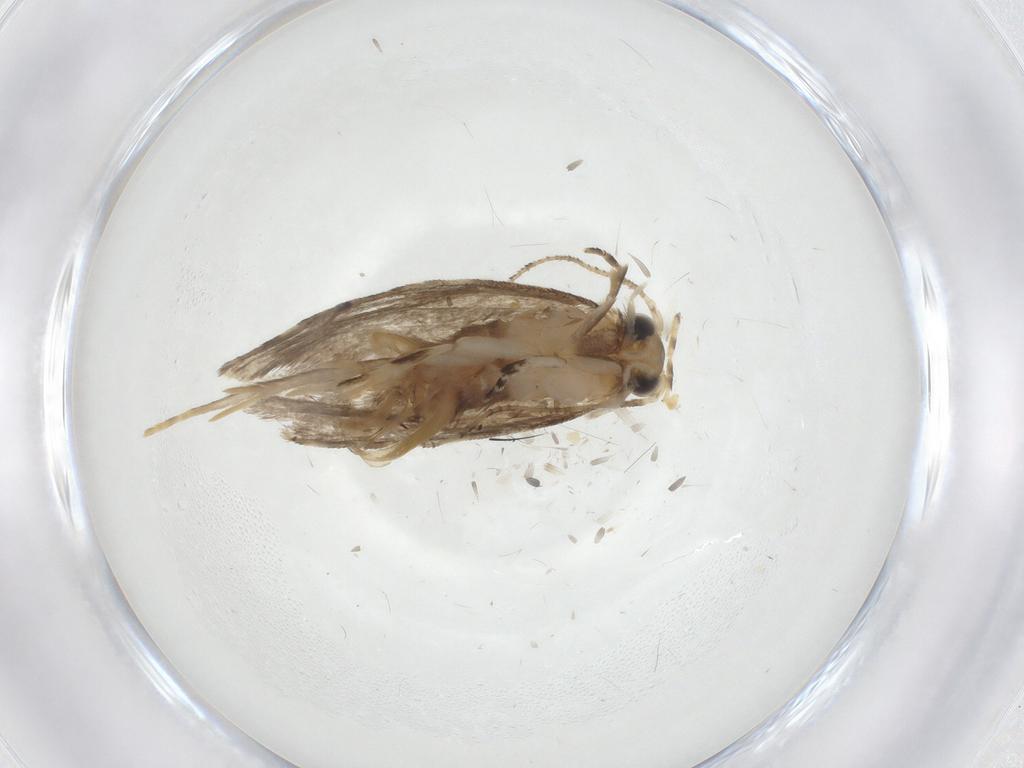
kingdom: Animalia
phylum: Arthropoda
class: Insecta
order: Lepidoptera
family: Tineidae
